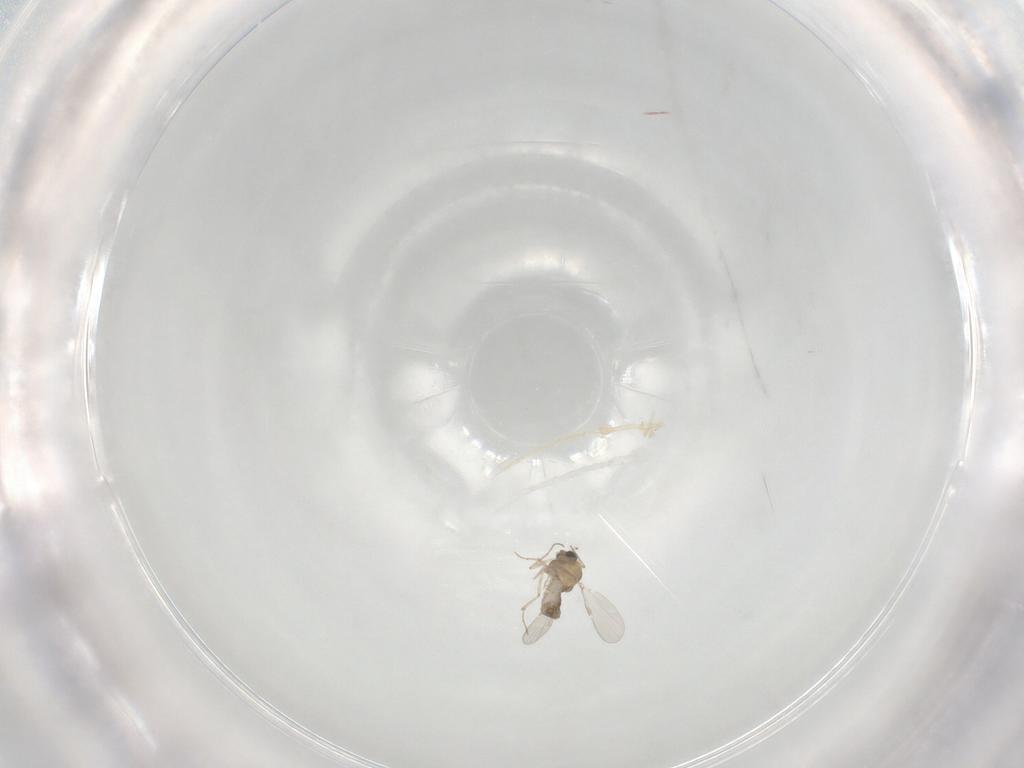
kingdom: Animalia
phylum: Arthropoda
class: Insecta
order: Diptera
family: Chironomidae
